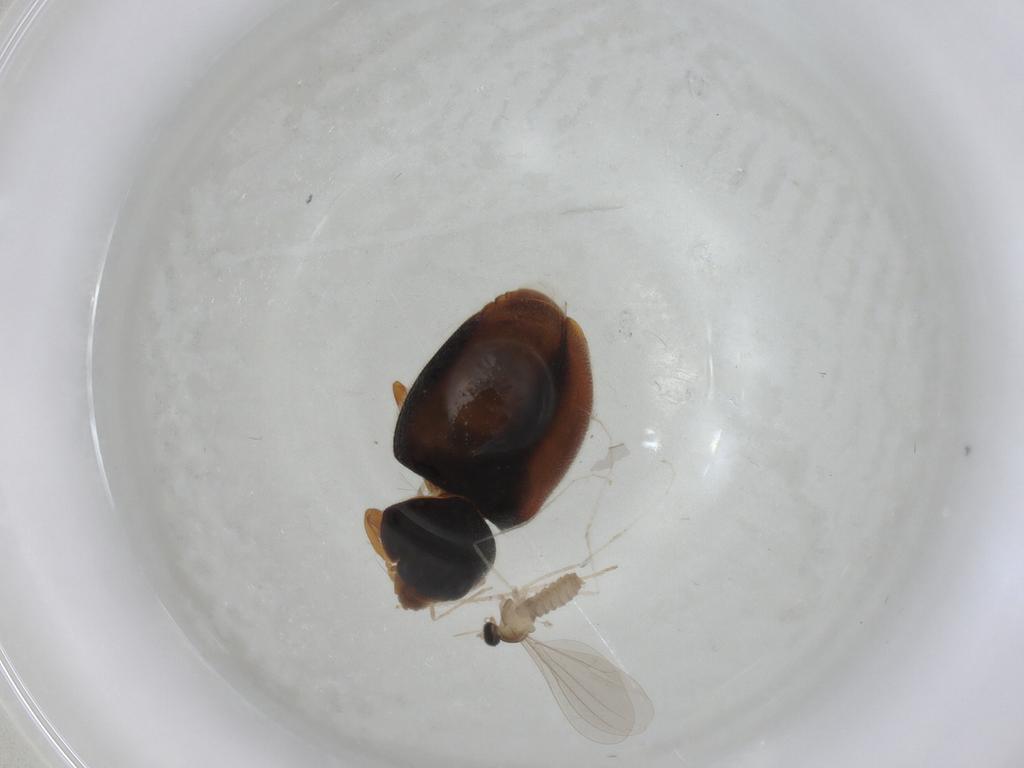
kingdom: Animalia
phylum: Arthropoda
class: Insecta
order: Diptera
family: Cecidomyiidae
